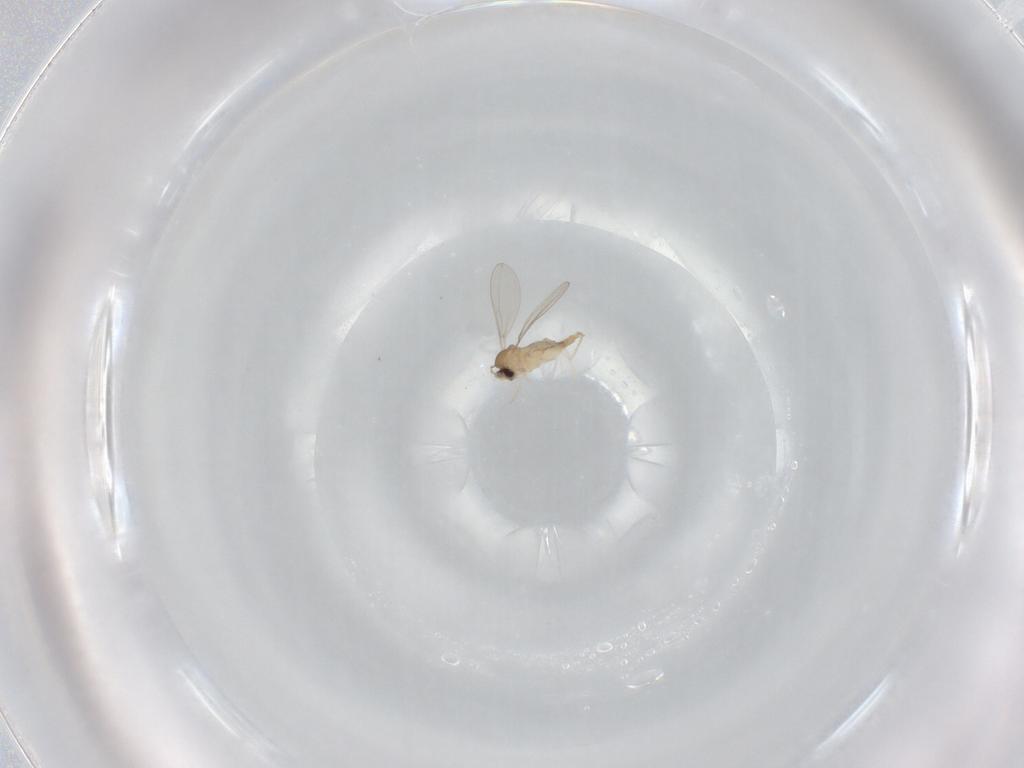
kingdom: Animalia
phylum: Arthropoda
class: Insecta
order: Diptera
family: Cecidomyiidae
